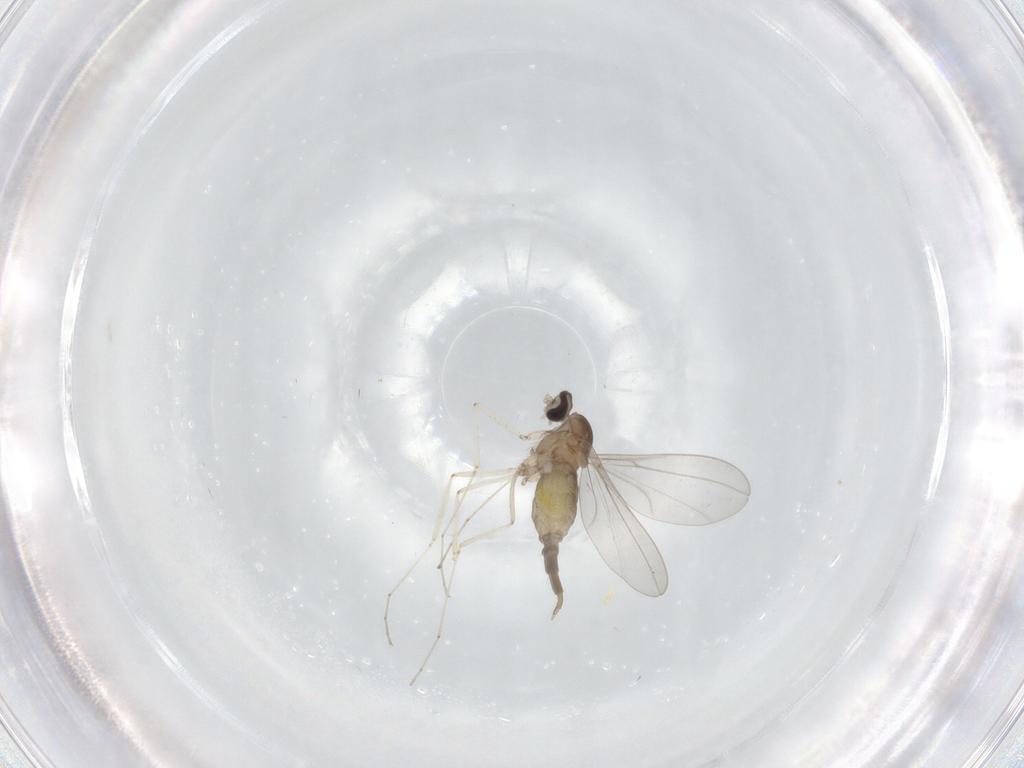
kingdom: Animalia
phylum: Arthropoda
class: Insecta
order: Diptera
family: Cecidomyiidae
